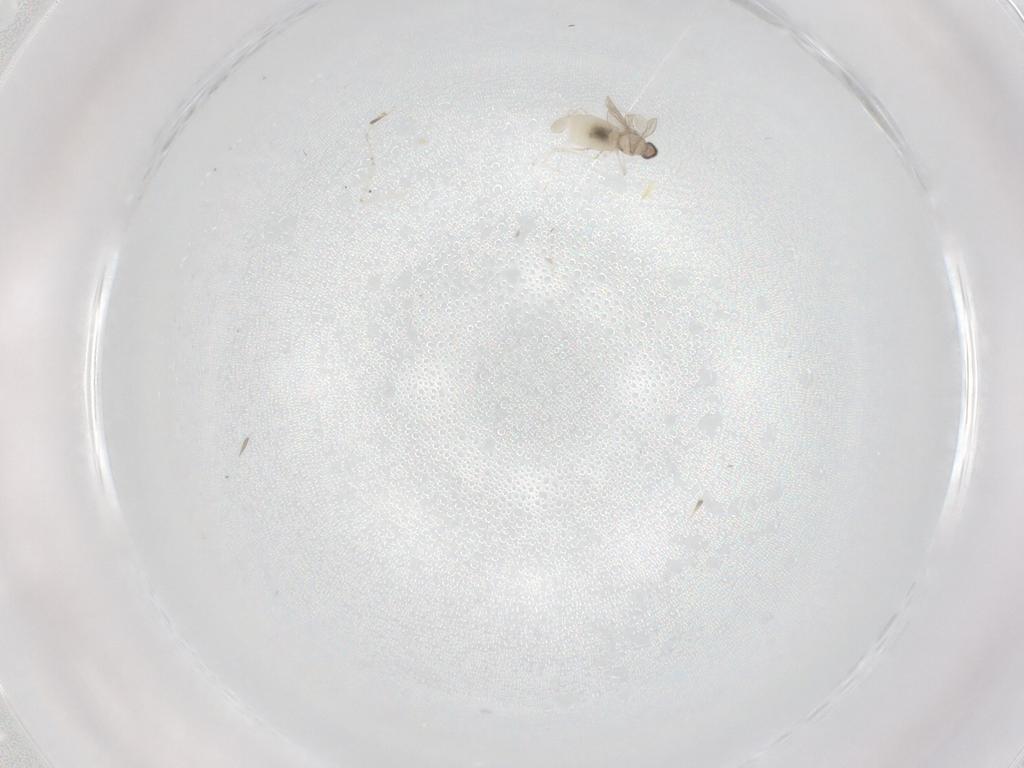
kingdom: Animalia
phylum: Arthropoda
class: Insecta
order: Diptera
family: Cecidomyiidae
